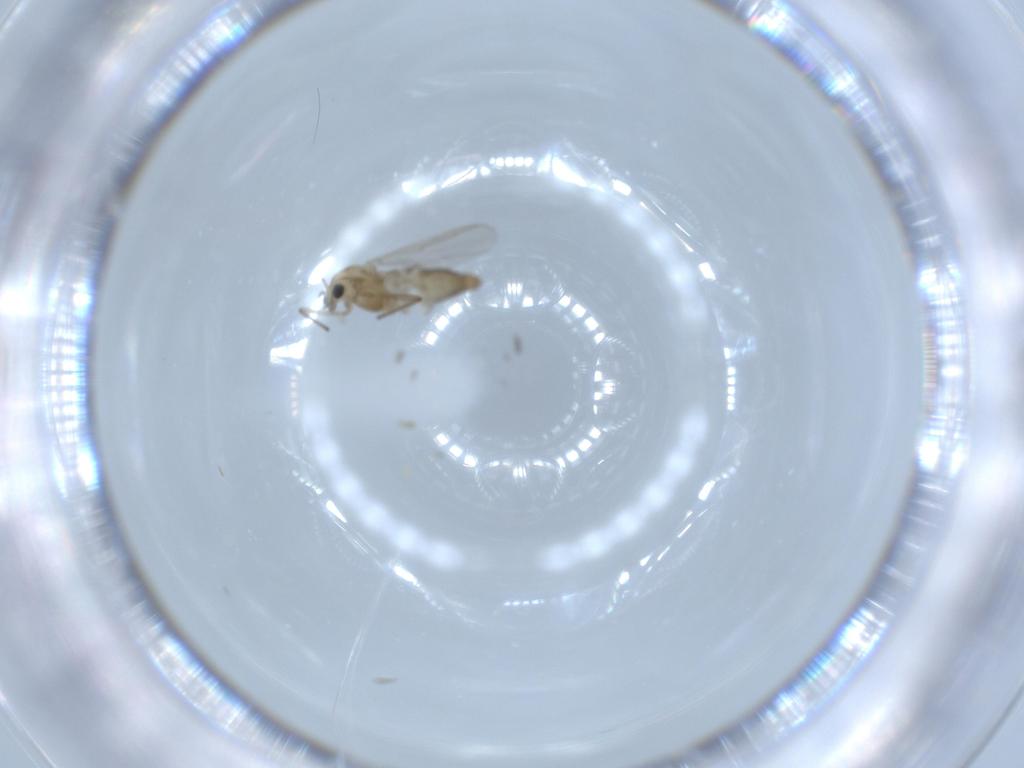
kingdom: Animalia
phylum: Arthropoda
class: Insecta
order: Diptera
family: Chironomidae
